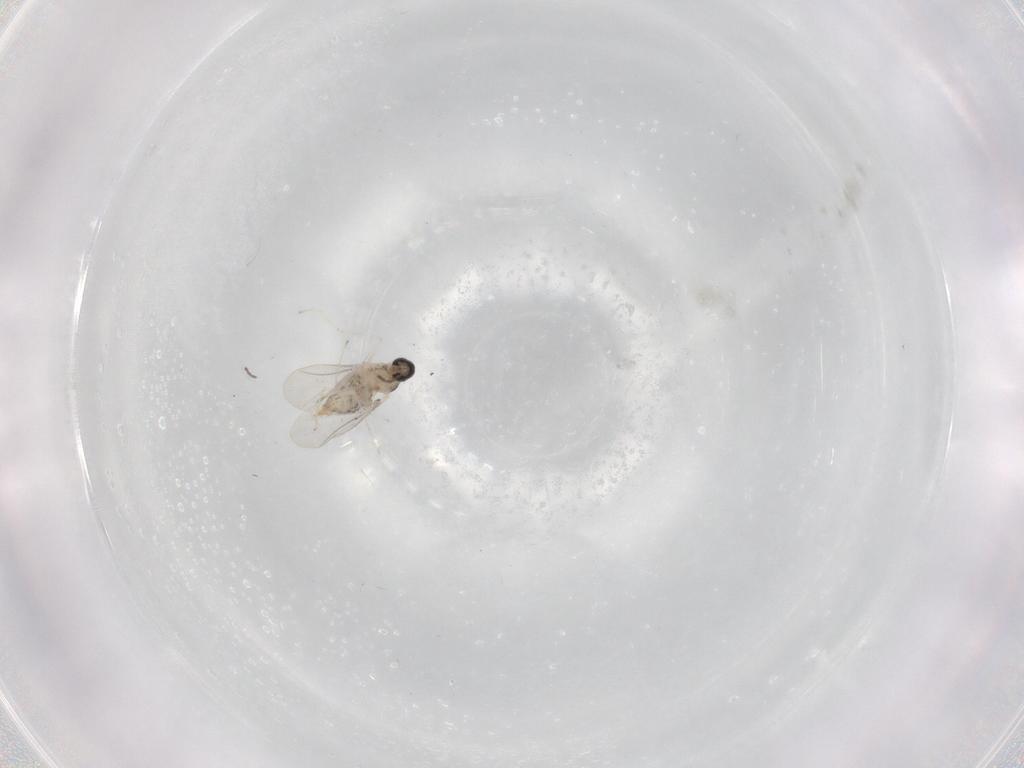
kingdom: Animalia
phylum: Arthropoda
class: Insecta
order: Diptera
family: Cecidomyiidae
